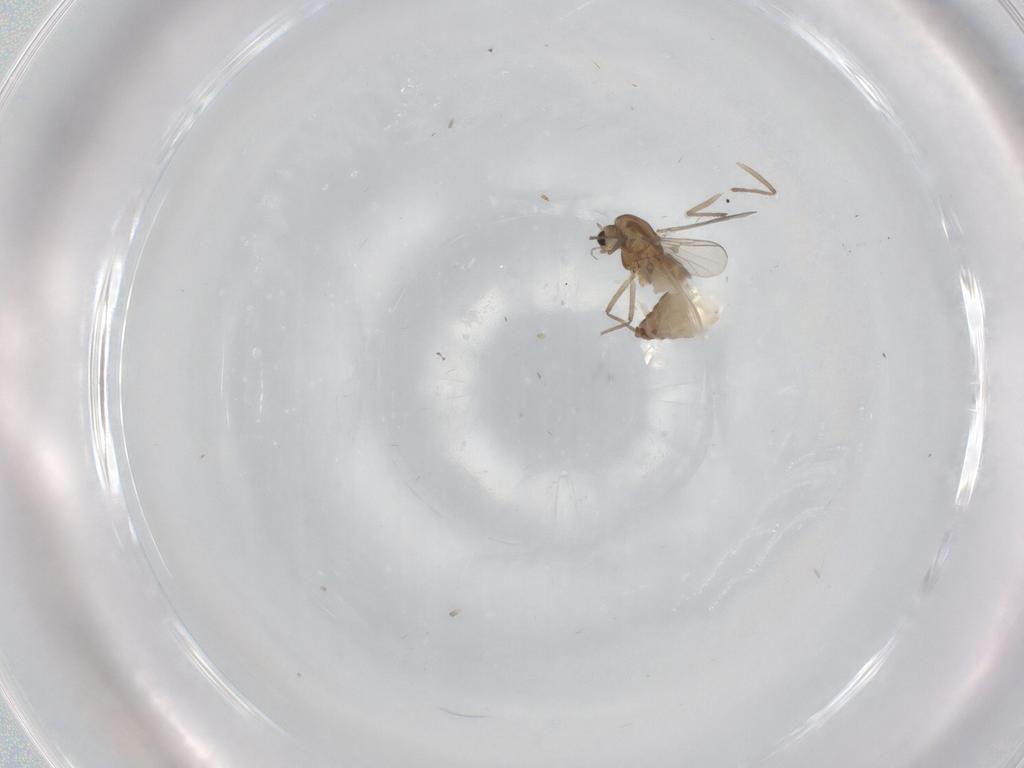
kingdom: Animalia
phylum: Arthropoda
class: Insecta
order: Diptera
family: Chironomidae
